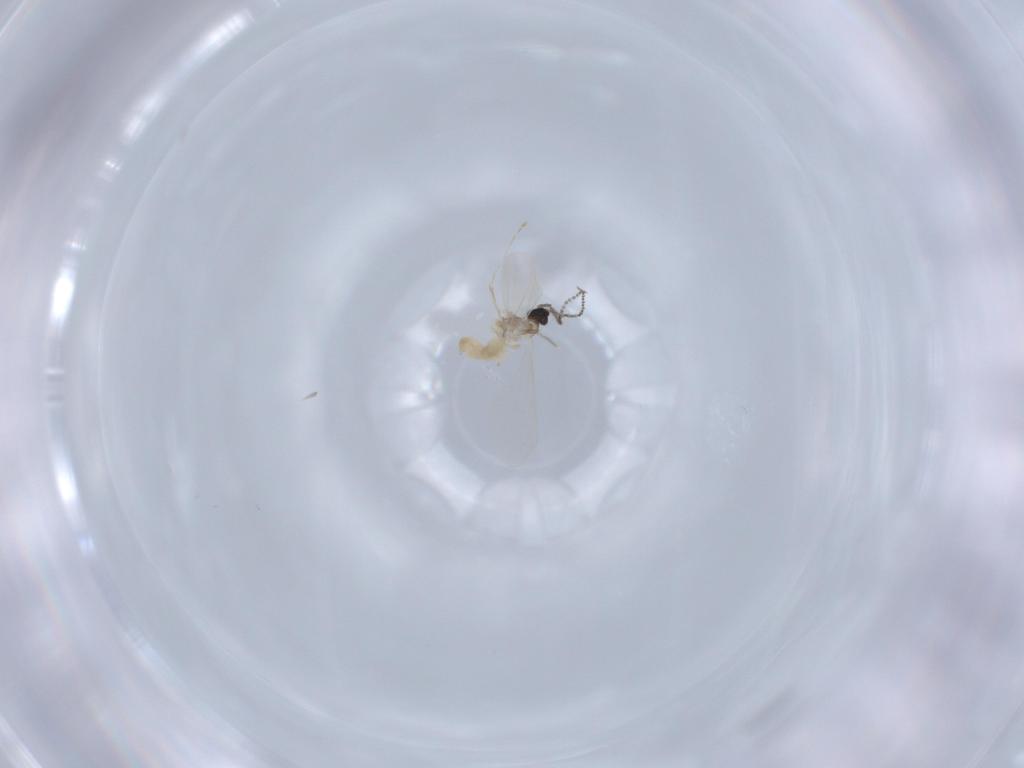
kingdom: Animalia
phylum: Arthropoda
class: Insecta
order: Diptera
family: Cecidomyiidae
